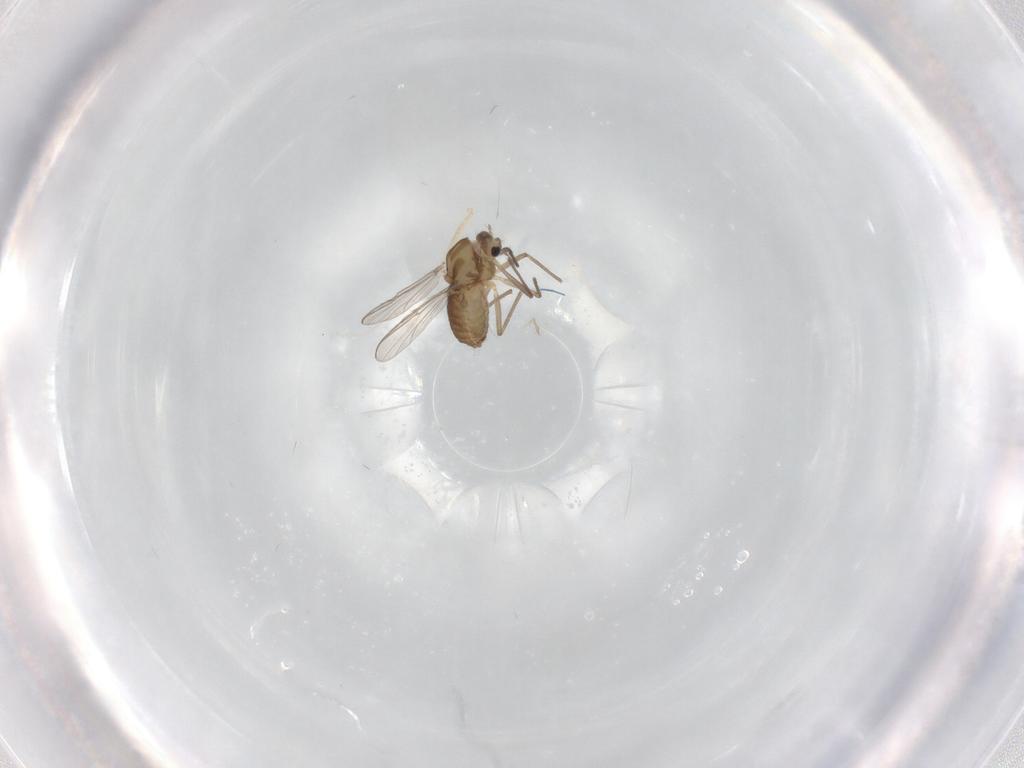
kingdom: Animalia
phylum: Arthropoda
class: Insecta
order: Diptera
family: Chironomidae
